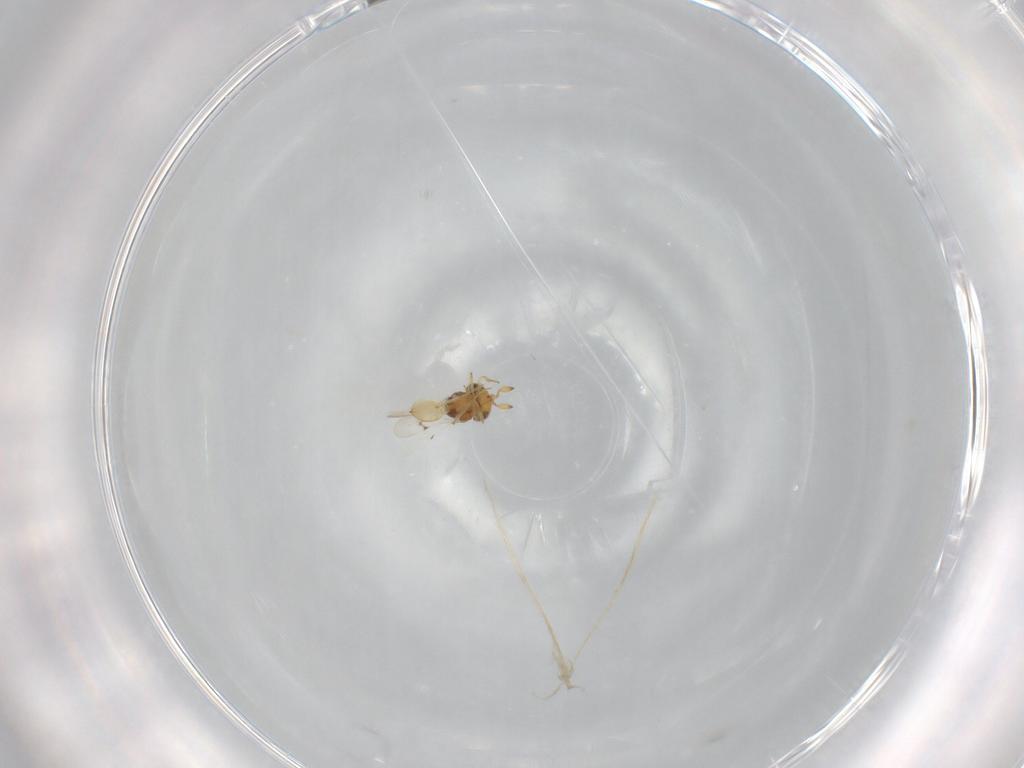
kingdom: Animalia
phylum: Arthropoda
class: Insecta
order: Hymenoptera
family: Scelionidae
